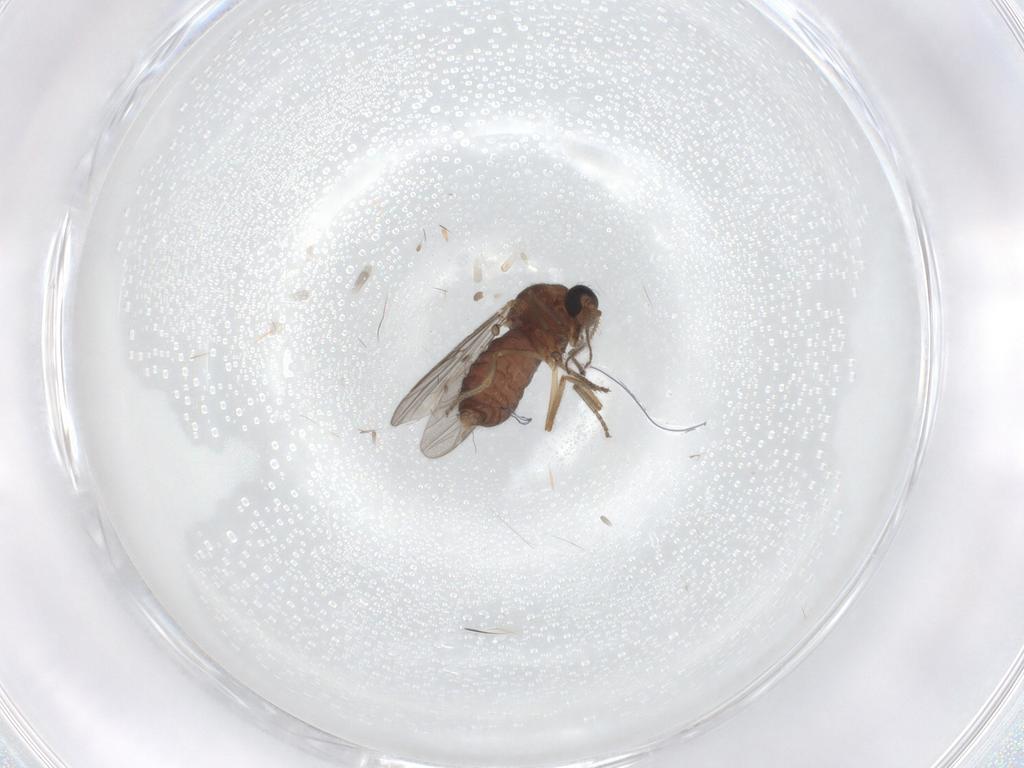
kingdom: Animalia
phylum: Arthropoda
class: Insecta
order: Diptera
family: Ceratopogonidae
